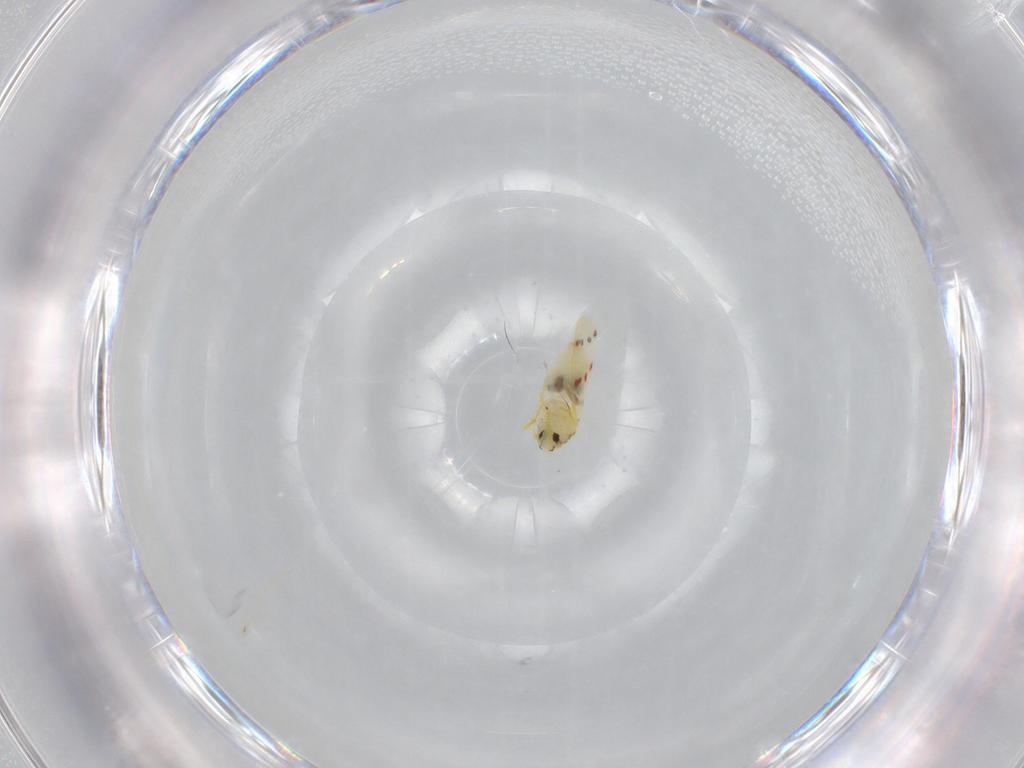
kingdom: Animalia
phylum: Arthropoda
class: Insecta
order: Hemiptera
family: Aleyrodidae
